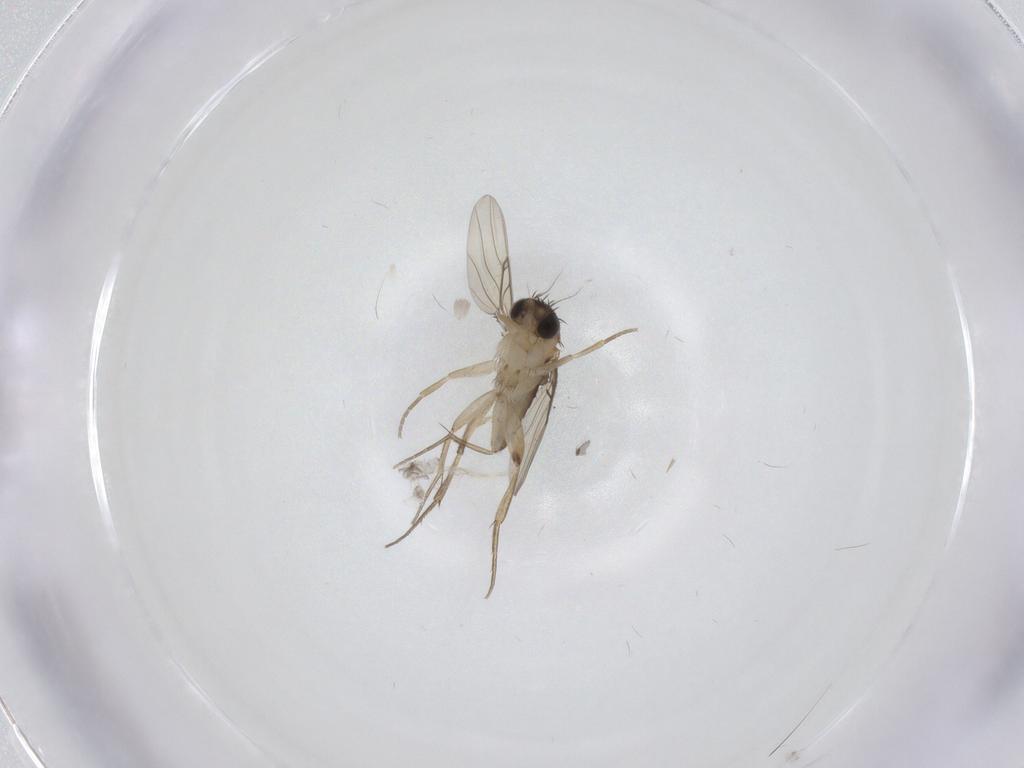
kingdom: Animalia
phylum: Arthropoda
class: Insecta
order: Diptera
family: Phoridae
